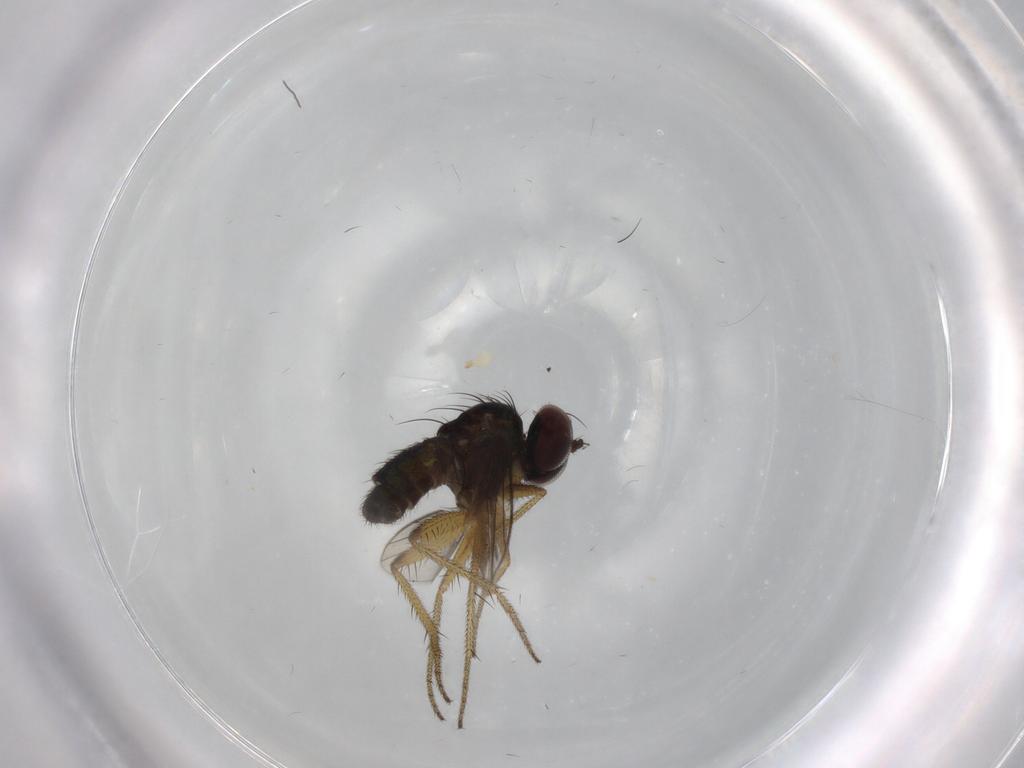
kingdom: Animalia
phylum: Arthropoda
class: Insecta
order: Diptera
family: Dolichopodidae
